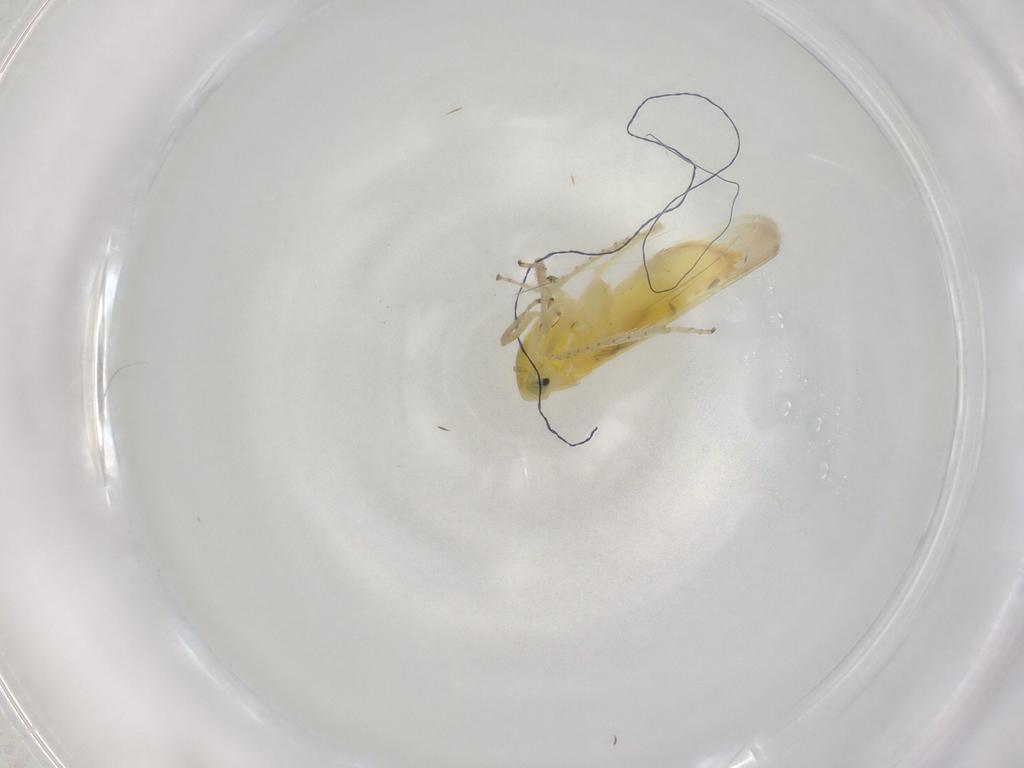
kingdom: Animalia
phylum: Arthropoda
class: Insecta
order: Hemiptera
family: Cicadellidae
